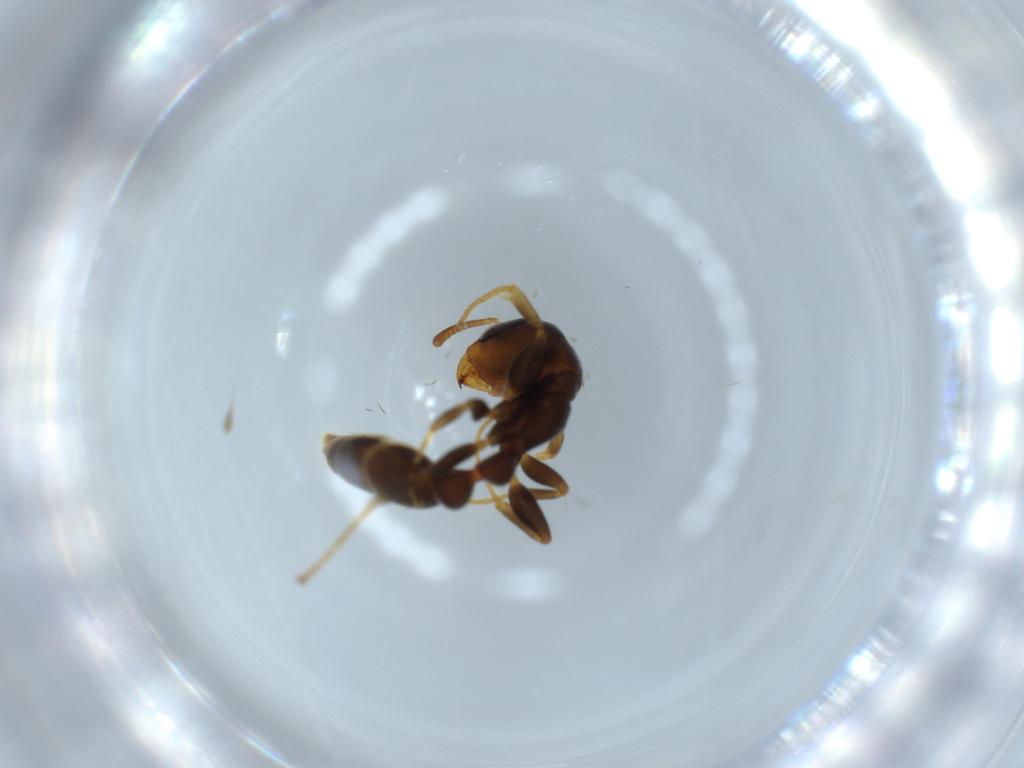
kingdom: Animalia
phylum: Arthropoda
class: Insecta
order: Hymenoptera
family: Formicidae
